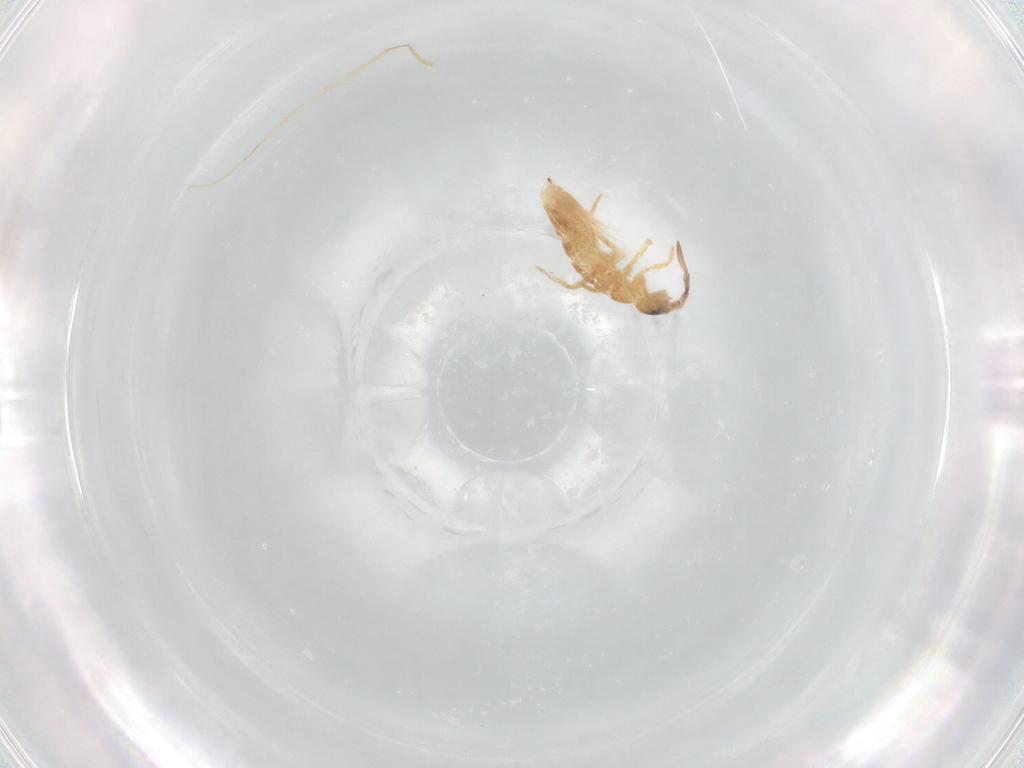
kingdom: Animalia
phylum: Arthropoda
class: Collembola
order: Entomobryomorpha
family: Entomobryidae
